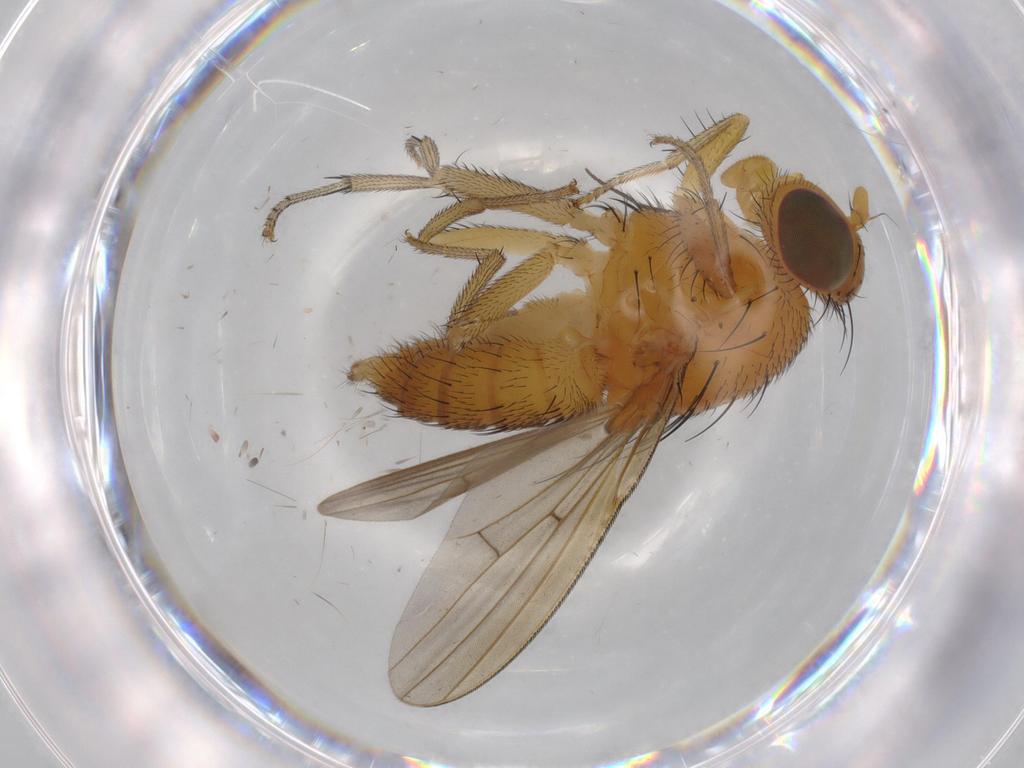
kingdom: Animalia
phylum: Arthropoda
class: Insecta
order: Diptera
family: Cecidomyiidae
